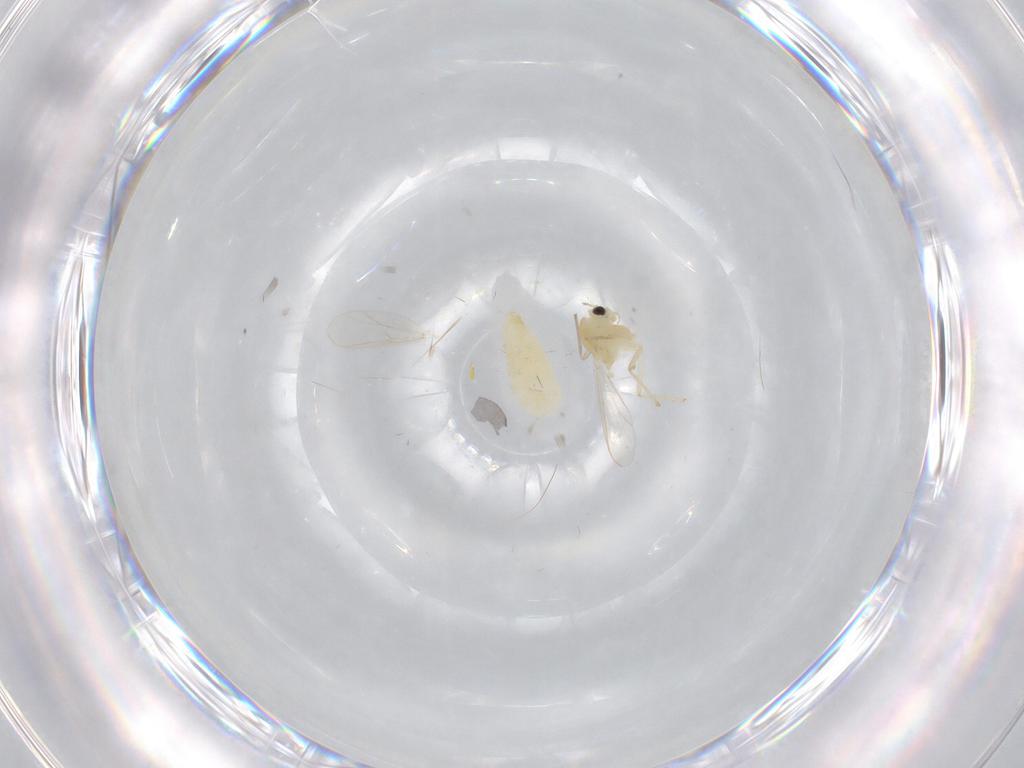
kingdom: Animalia
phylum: Arthropoda
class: Insecta
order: Diptera
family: Chironomidae
